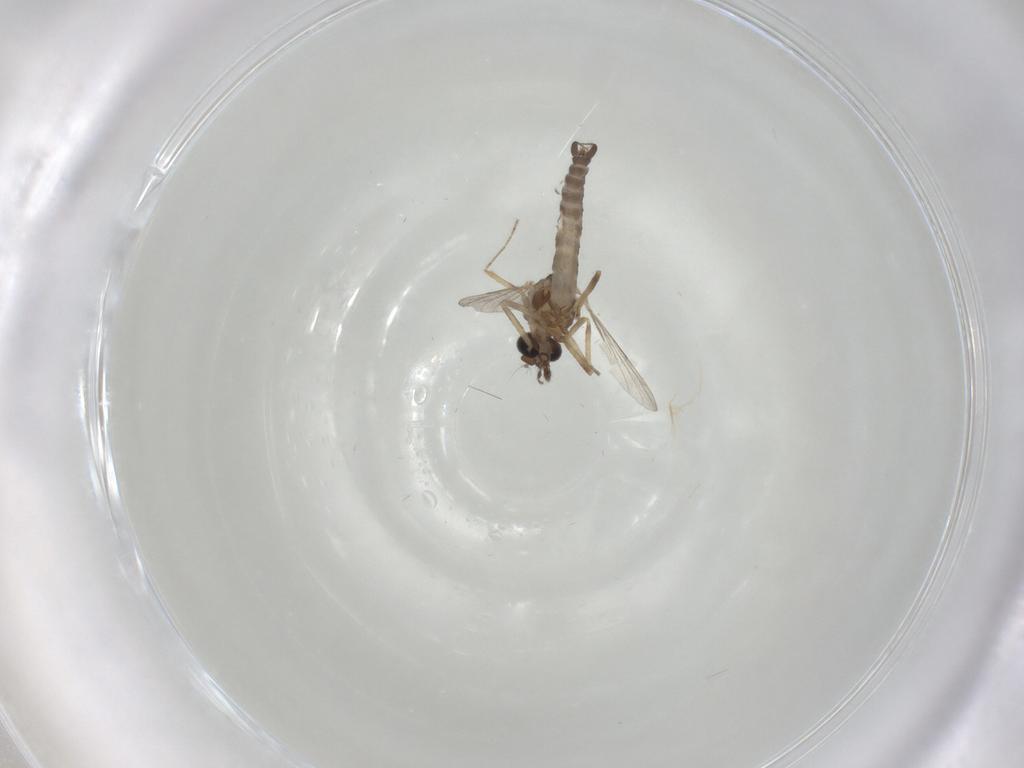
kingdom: Animalia
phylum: Arthropoda
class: Insecta
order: Diptera
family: Ceratopogonidae
